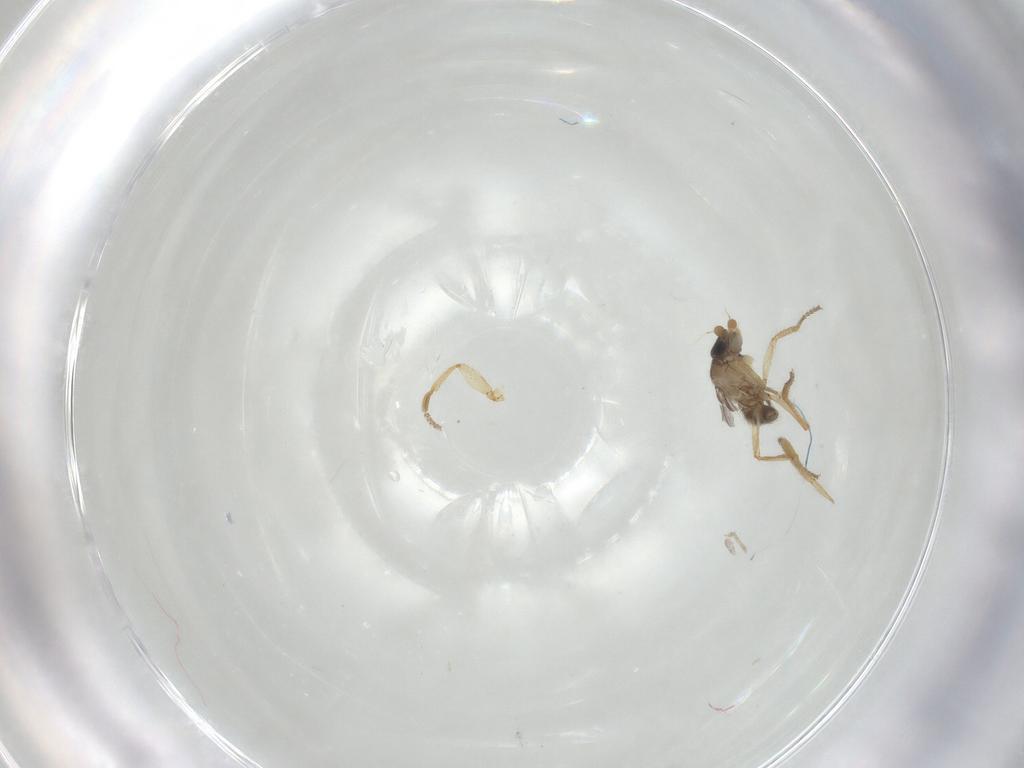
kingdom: Animalia
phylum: Arthropoda
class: Insecta
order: Diptera
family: Phoridae
